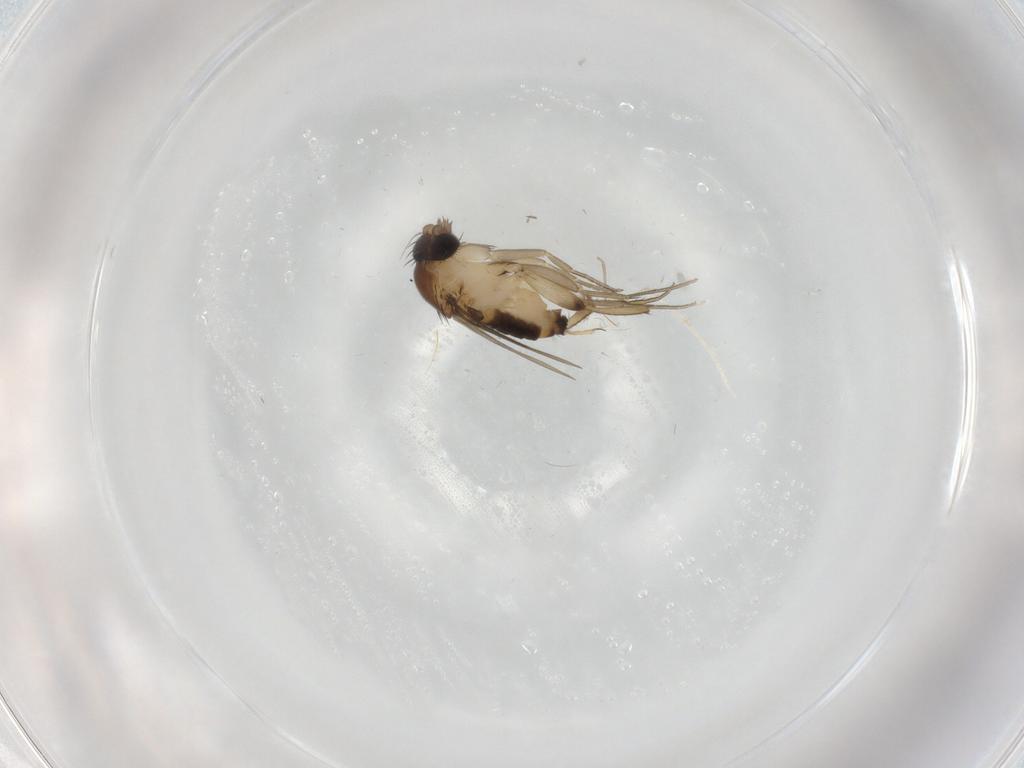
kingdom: Animalia
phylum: Arthropoda
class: Insecta
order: Diptera
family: Cecidomyiidae
